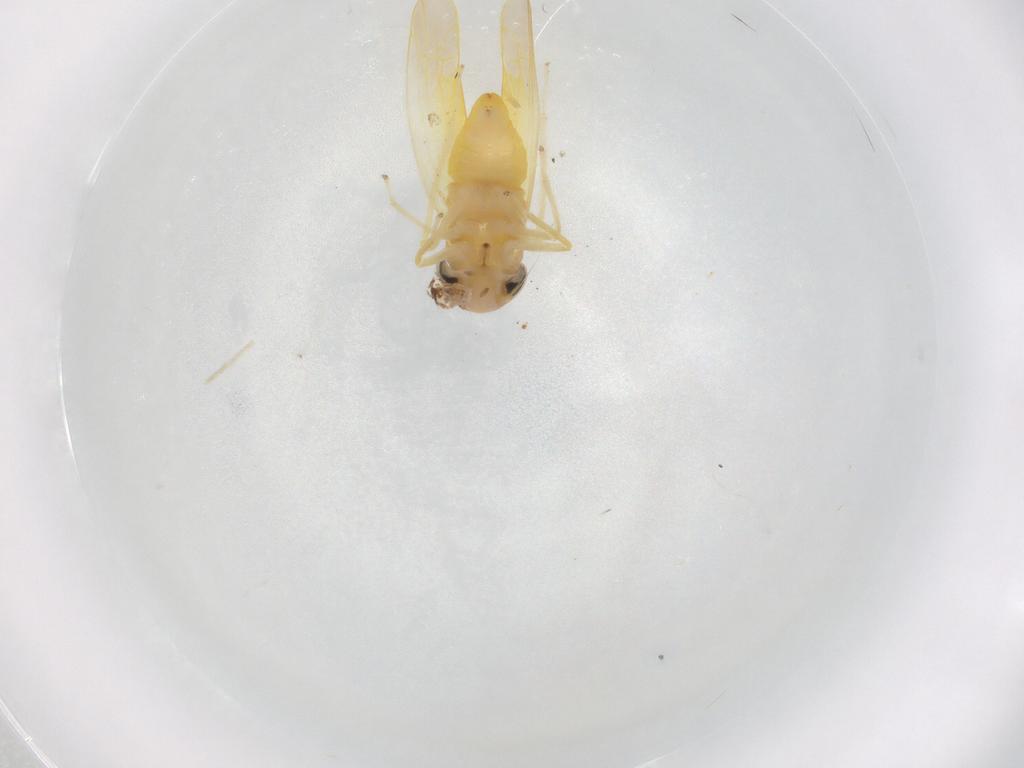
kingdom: Animalia
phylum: Arthropoda
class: Insecta
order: Hemiptera
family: Cicadellidae
